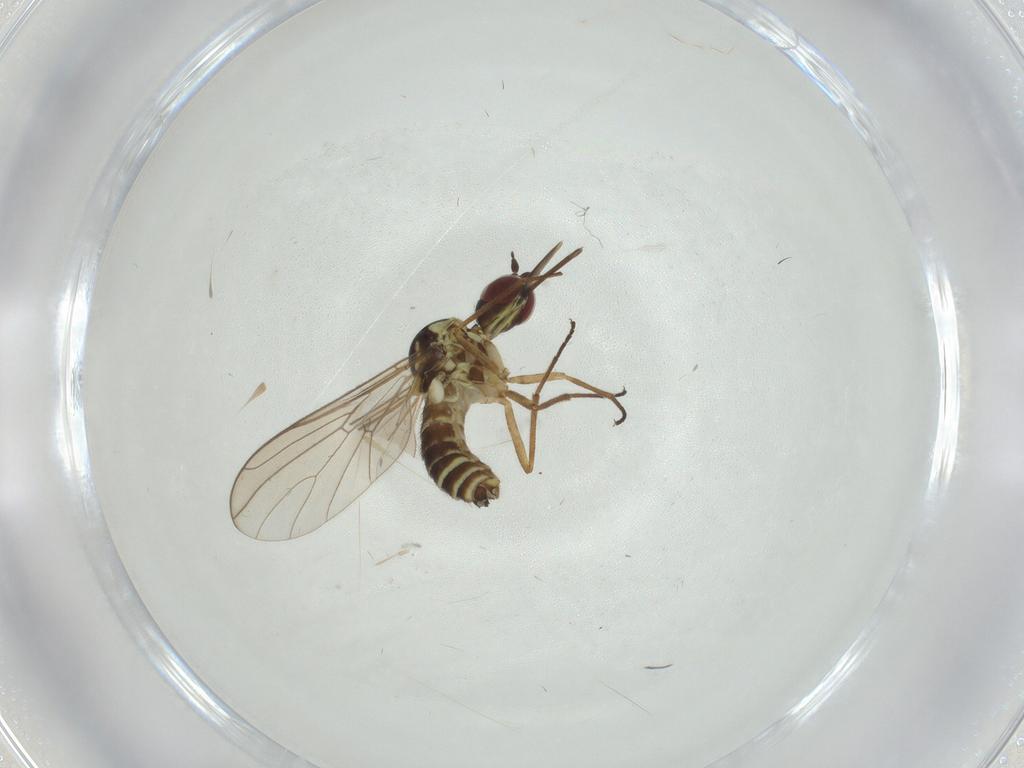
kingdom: Animalia
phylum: Arthropoda
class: Insecta
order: Diptera
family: Mythicomyiidae
